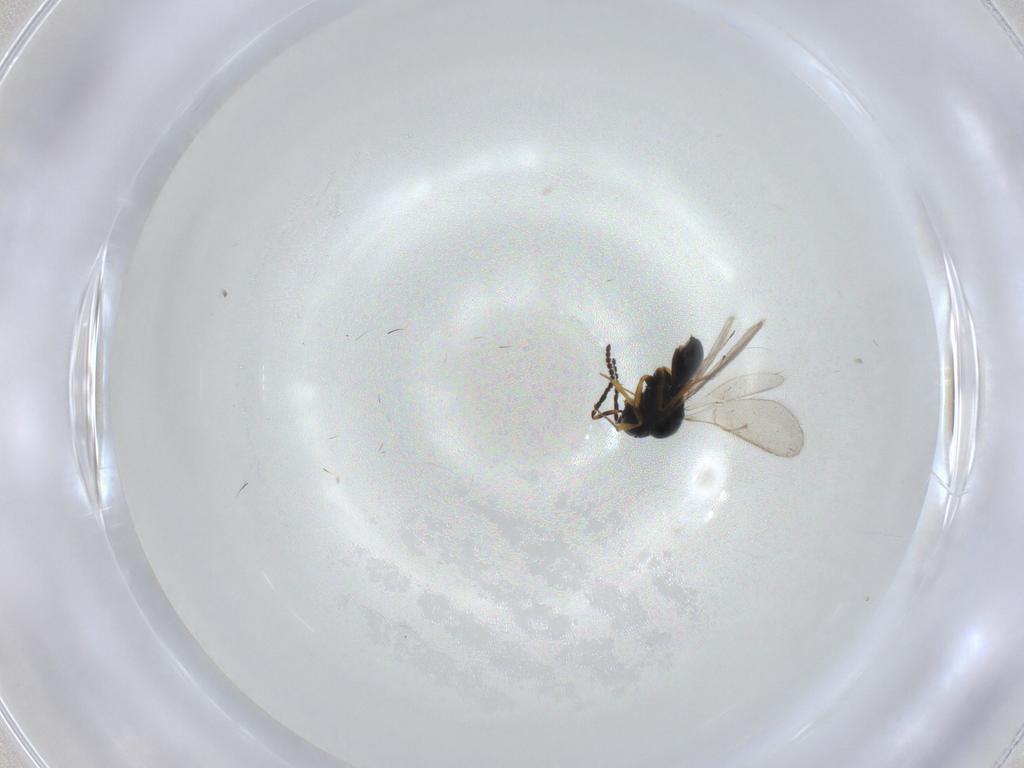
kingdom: Animalia
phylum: Arthropoda
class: Insecta
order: Hymenoptera
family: Scelionidae
